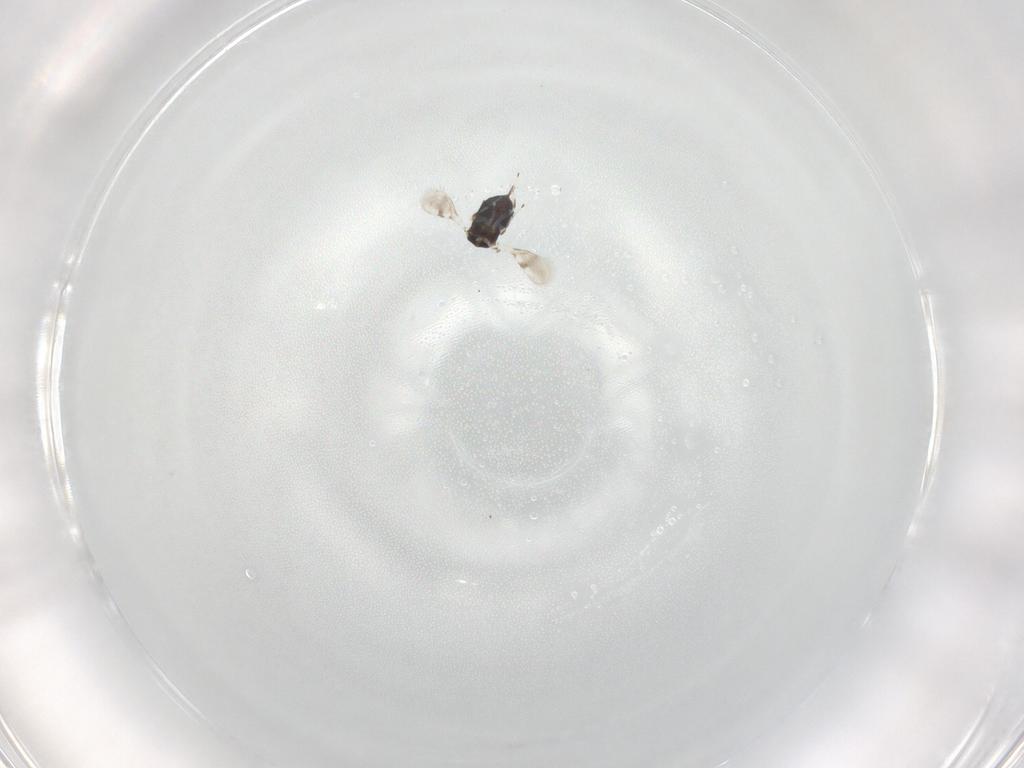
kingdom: Animalia
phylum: Arthropoda
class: Insecta
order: Hymenoptera
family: Azotidae
